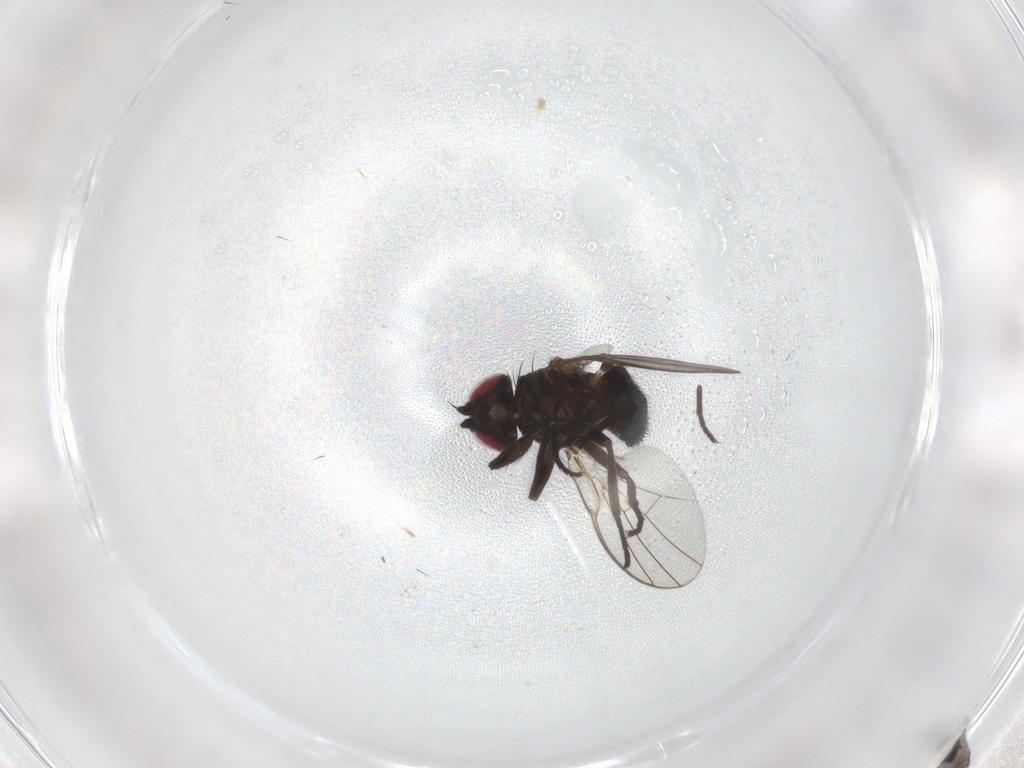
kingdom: Animalia
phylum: Arthropoda
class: Insecta
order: Diptera
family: Agromyzidae
